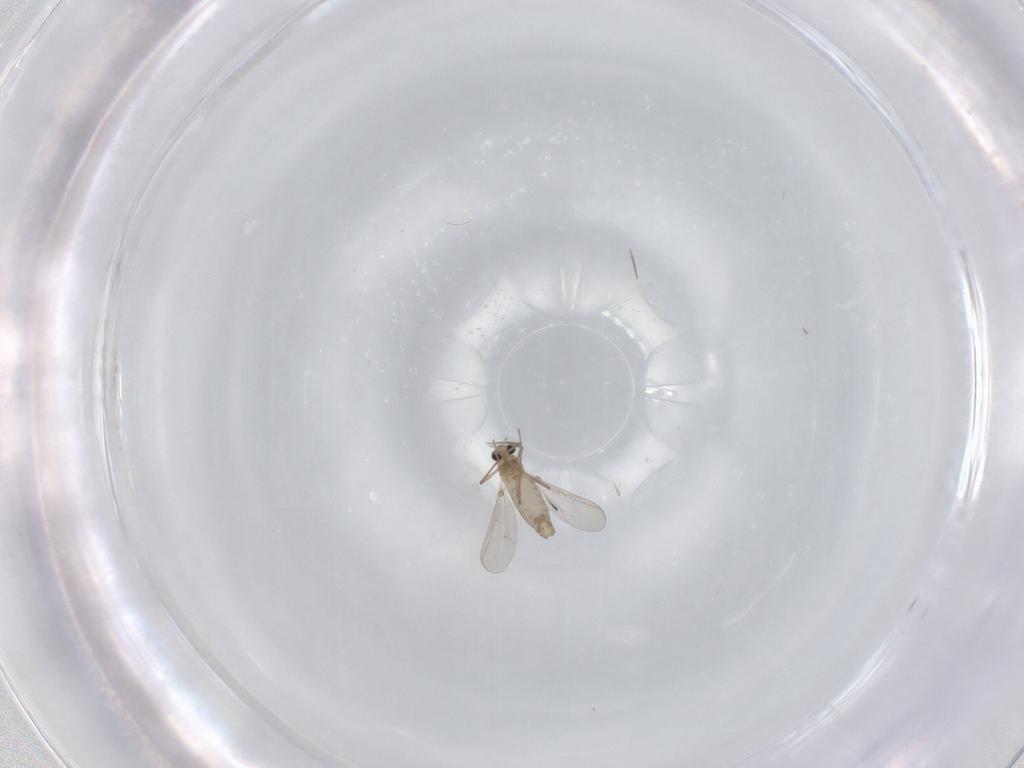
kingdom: Animalia
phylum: Arthropoda
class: Insecta
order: Diptera
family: Chironomidae
